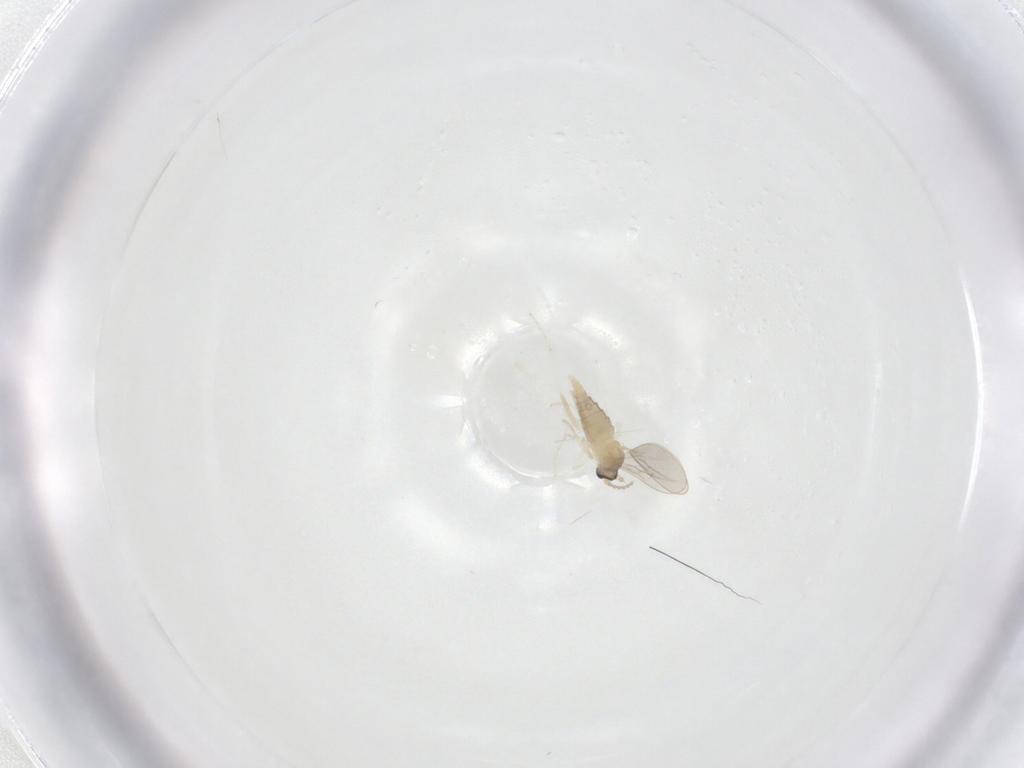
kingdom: Animalia
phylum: Arthropoda
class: Insecta
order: Diptera
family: Cecidomyiidae
